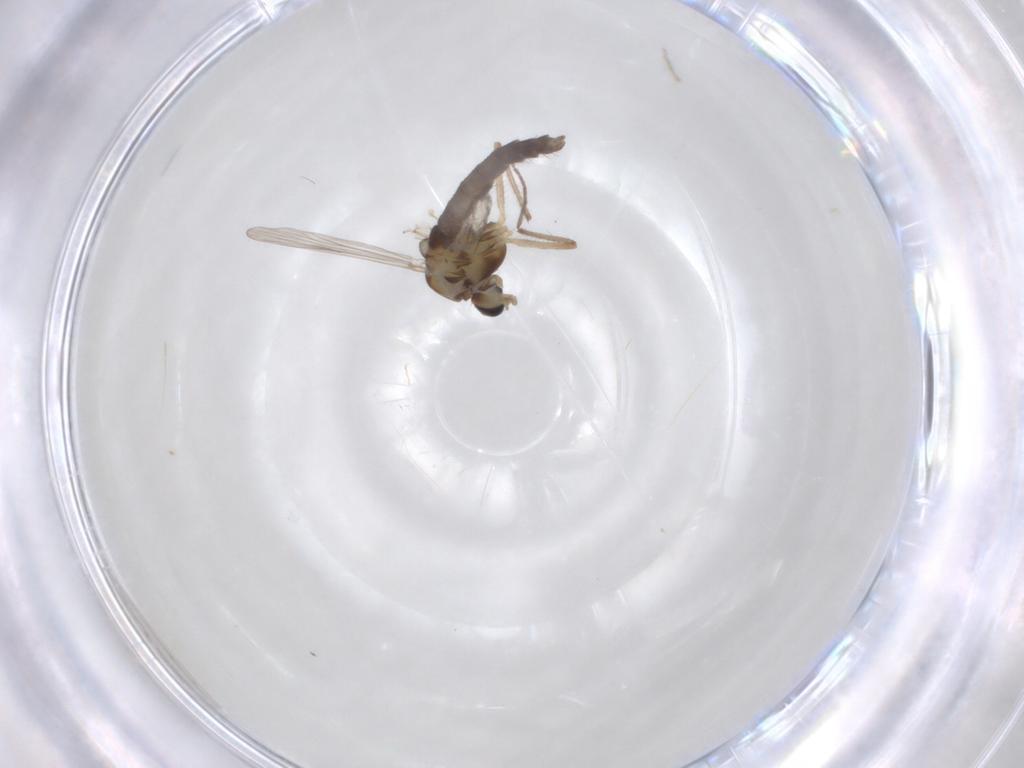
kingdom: Animalia
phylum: Arthropoda
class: Insecta
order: Diptera
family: Chironomidae
